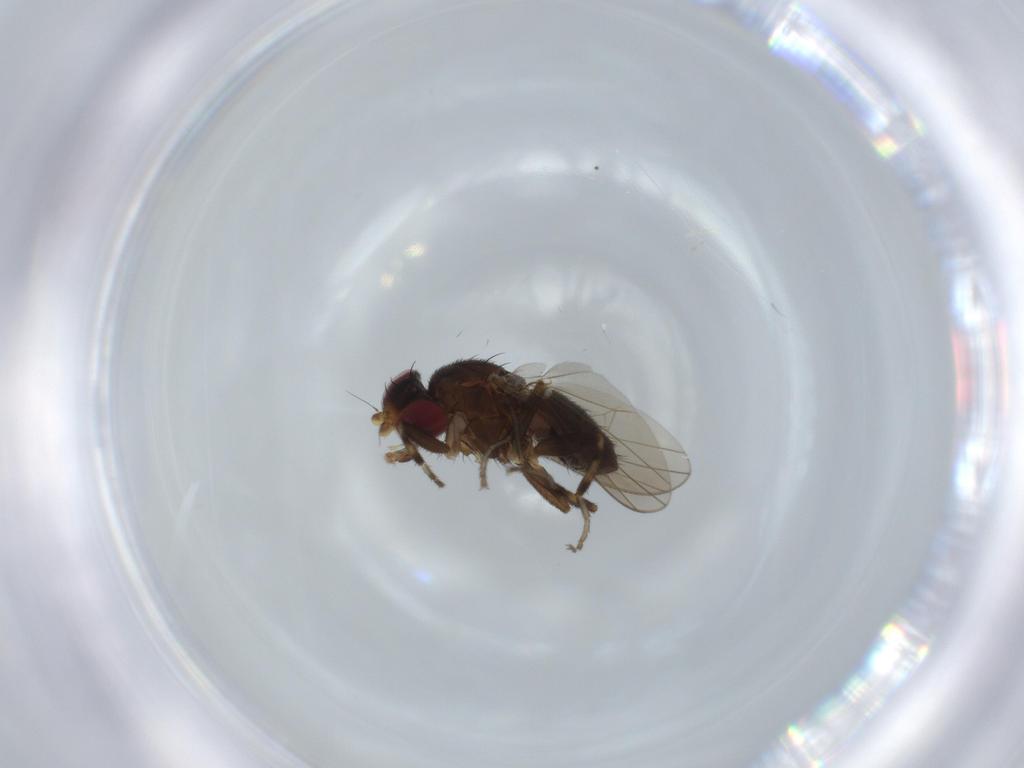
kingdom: Animalia
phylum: Arthropoda
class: Insecta
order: Diptera
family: Heleomyzidae
